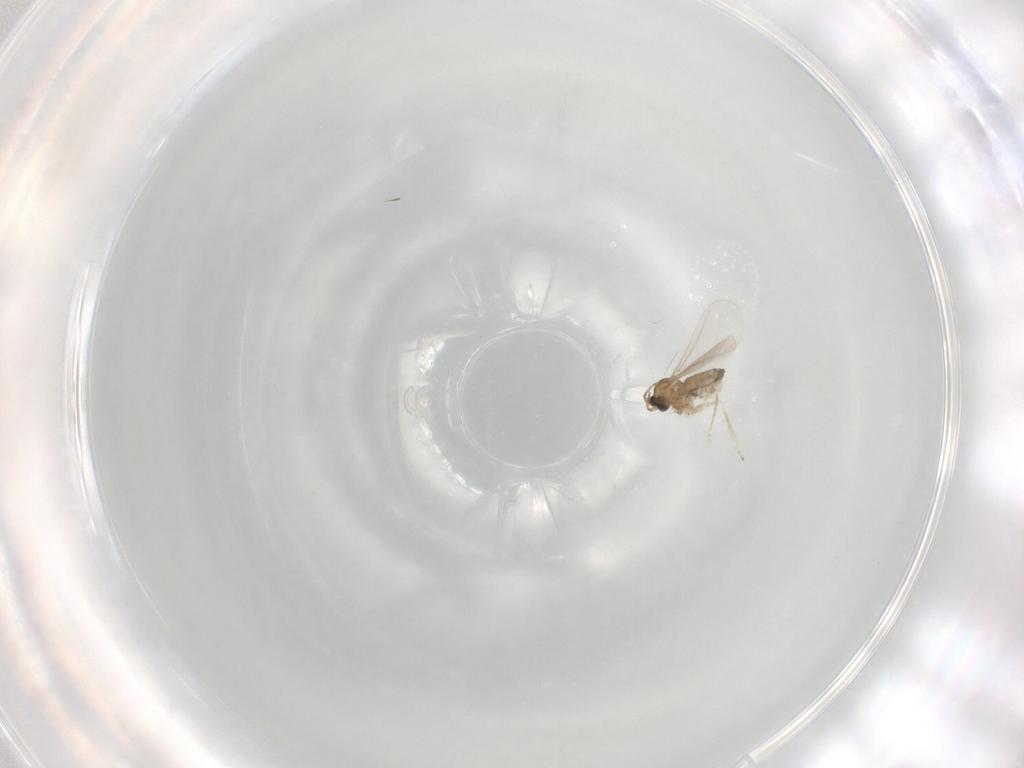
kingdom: Animalia
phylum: Arthropoda
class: Insecta
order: Diptera
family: Cecidomyiidae
